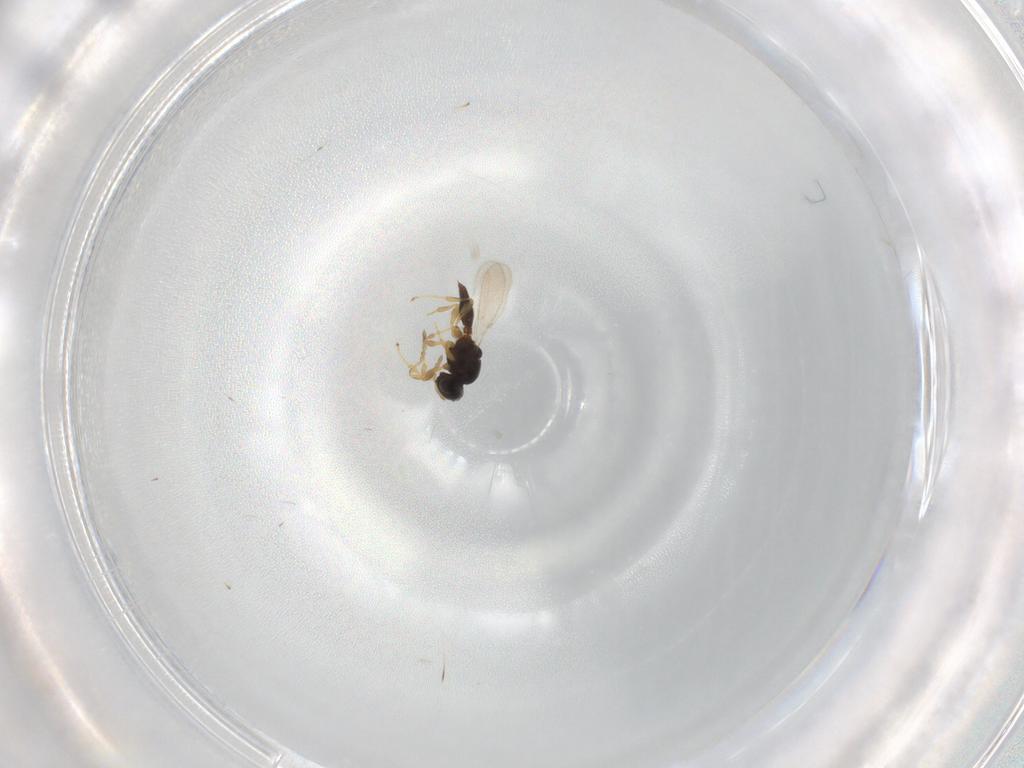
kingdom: Animalia
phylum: Arthropoda
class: Insecta
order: Hymenoptera
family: Platygastridae
